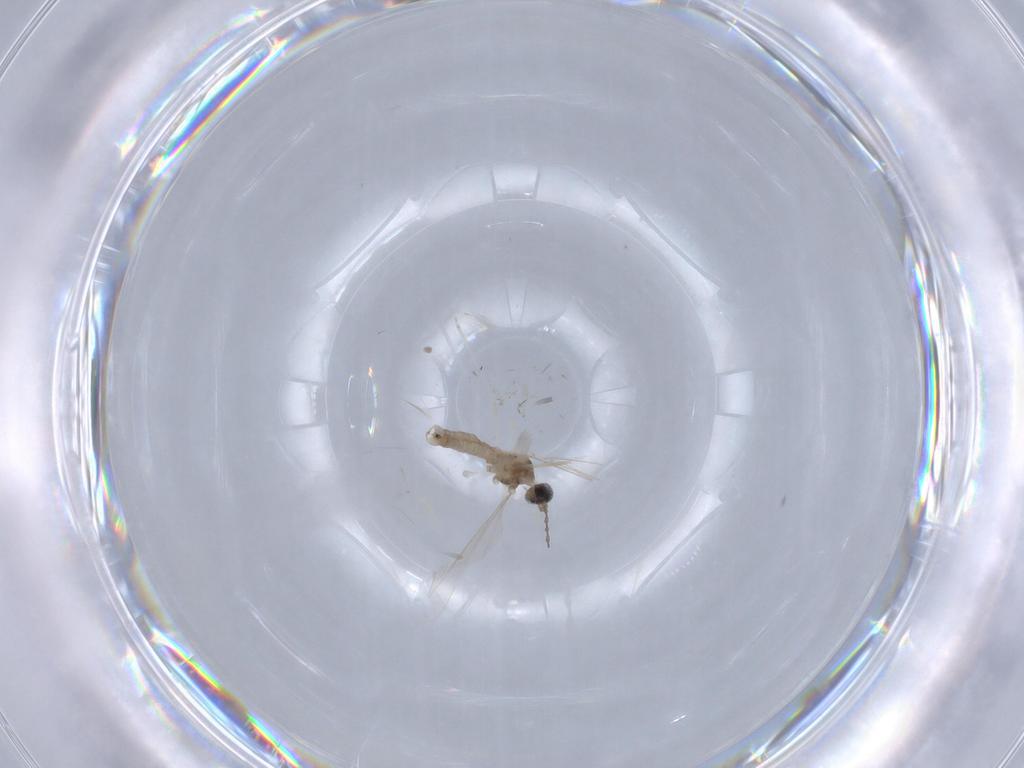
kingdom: Animalia
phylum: Arthropoda
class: Insecta
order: Diptera
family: Cecidomyiidae
